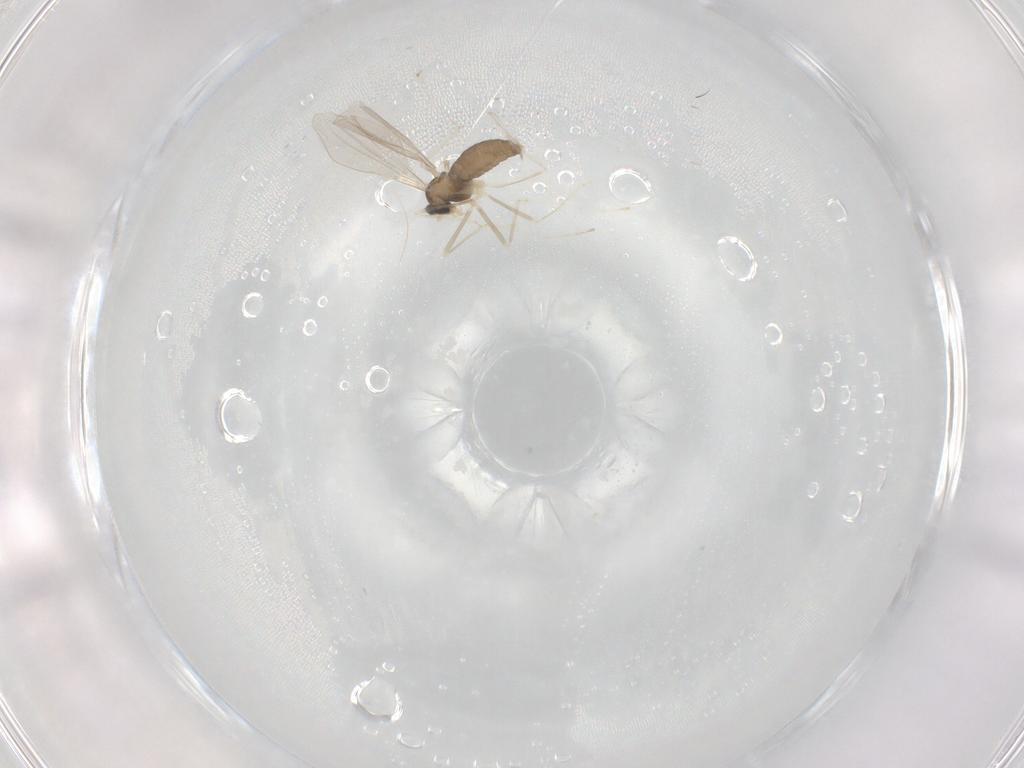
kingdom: Animalia
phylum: Arthropoda
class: Insecta
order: Diptera
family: Cecidomyiidae
